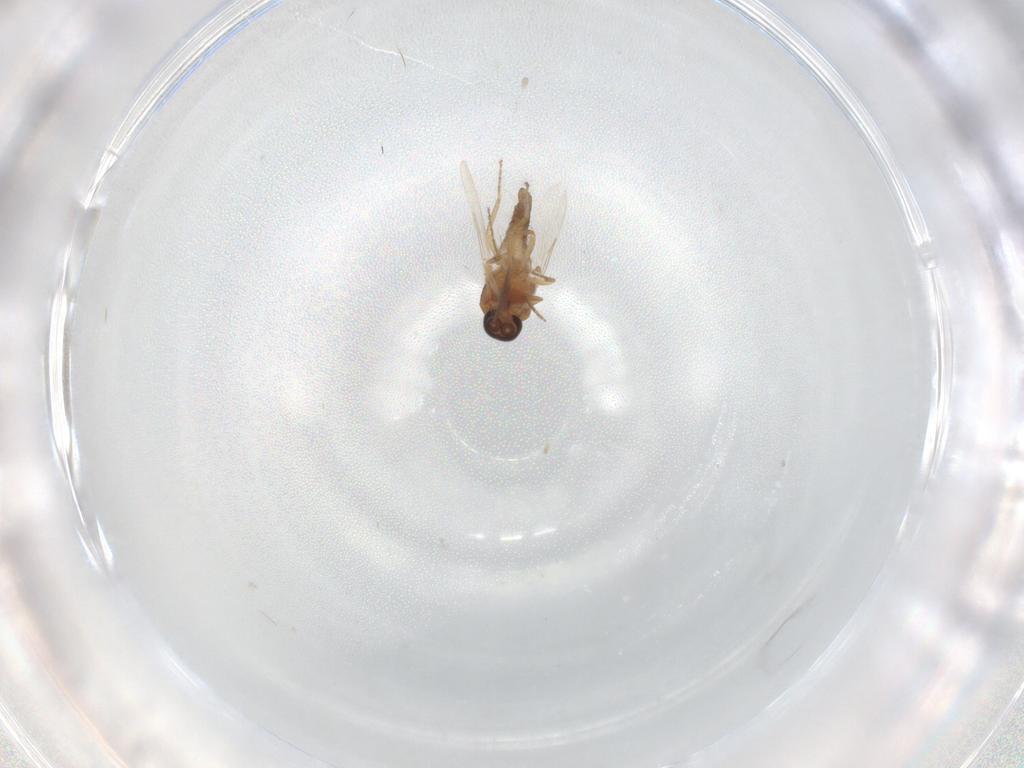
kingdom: Animalia
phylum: Arthropoda
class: Insecta
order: Diptera
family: Ceratopogonidae
